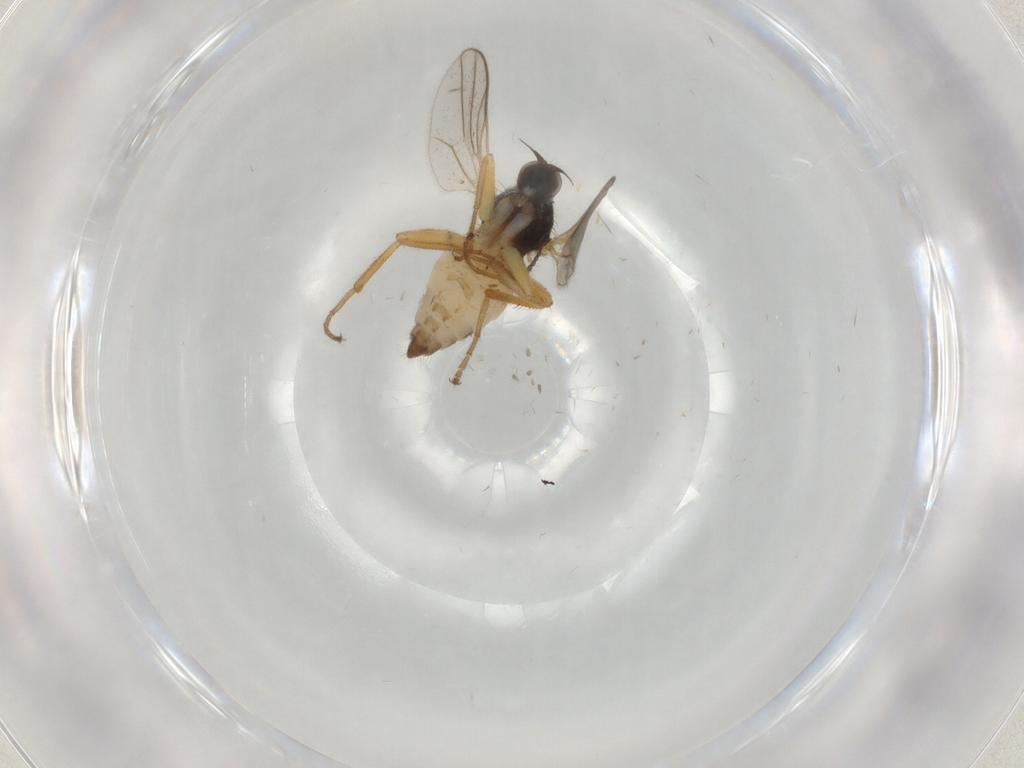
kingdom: Animalia
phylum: Arthropoda
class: Insecta
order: Diptera
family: Hybotidae
